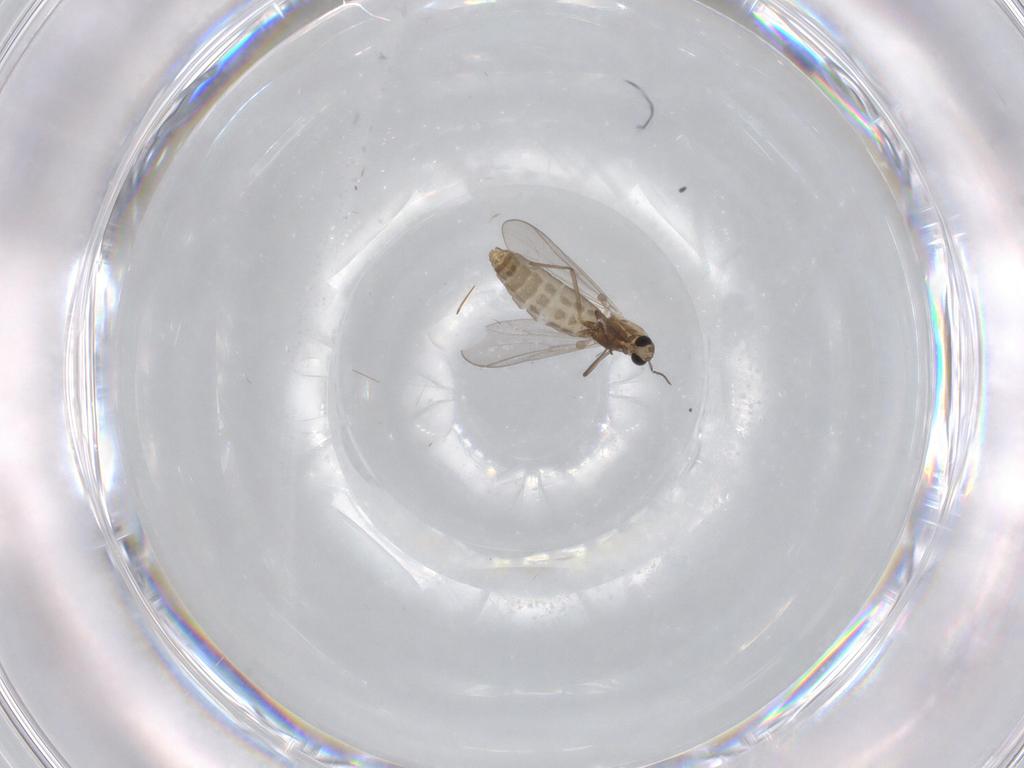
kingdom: Animalia
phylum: Arthropoda
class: Insecta
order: Diptera
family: Chironomidae
